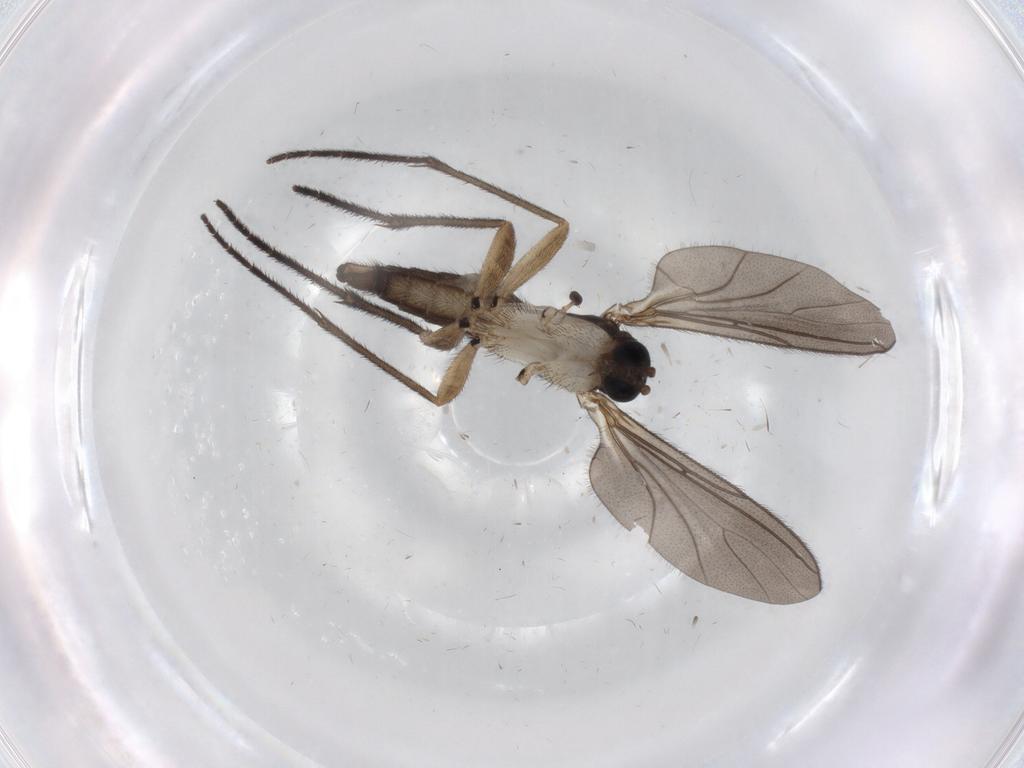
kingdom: Animalia
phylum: Arthropoda
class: Insecta
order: Diptera
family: Sciaridae
